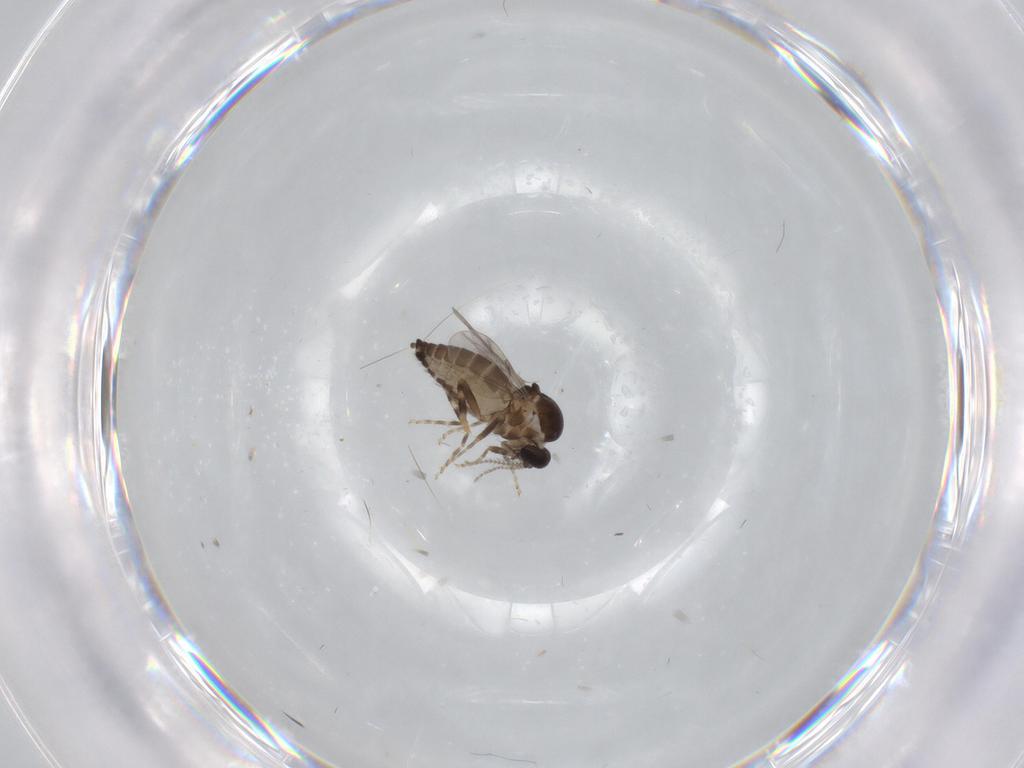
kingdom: Animalia
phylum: Arthropoda
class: Insecta
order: Diptera
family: Ceratopogonidae
